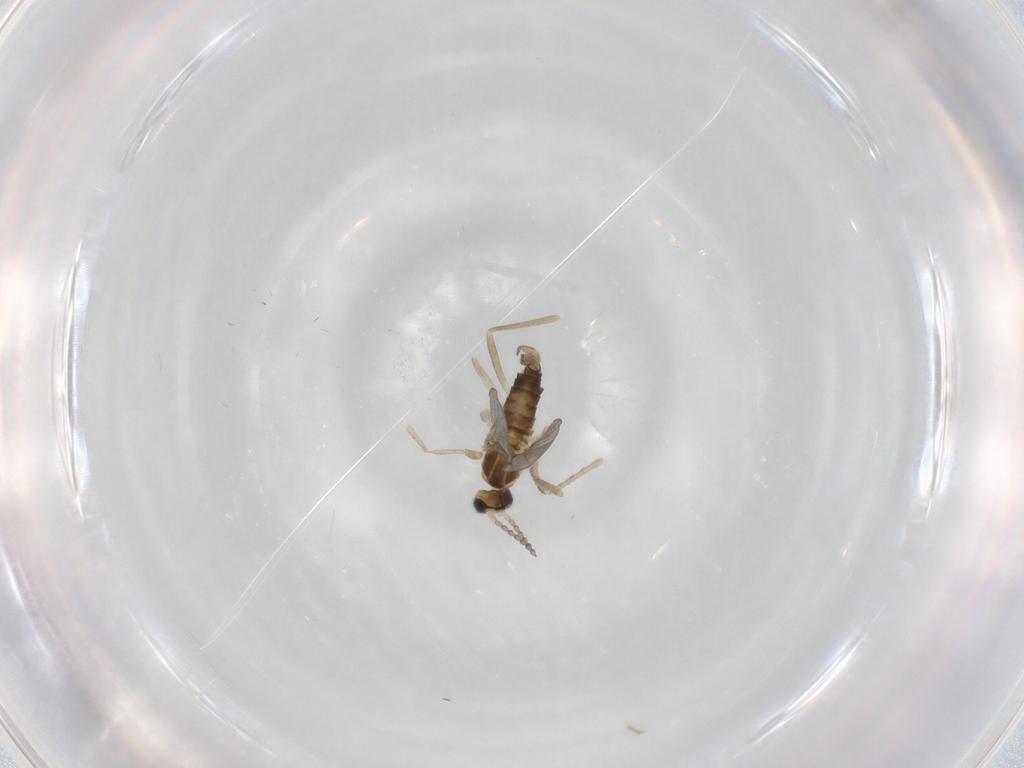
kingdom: Animalia
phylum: Arthropoda
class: Insecta
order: Diptera
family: Cecidomyiidae
